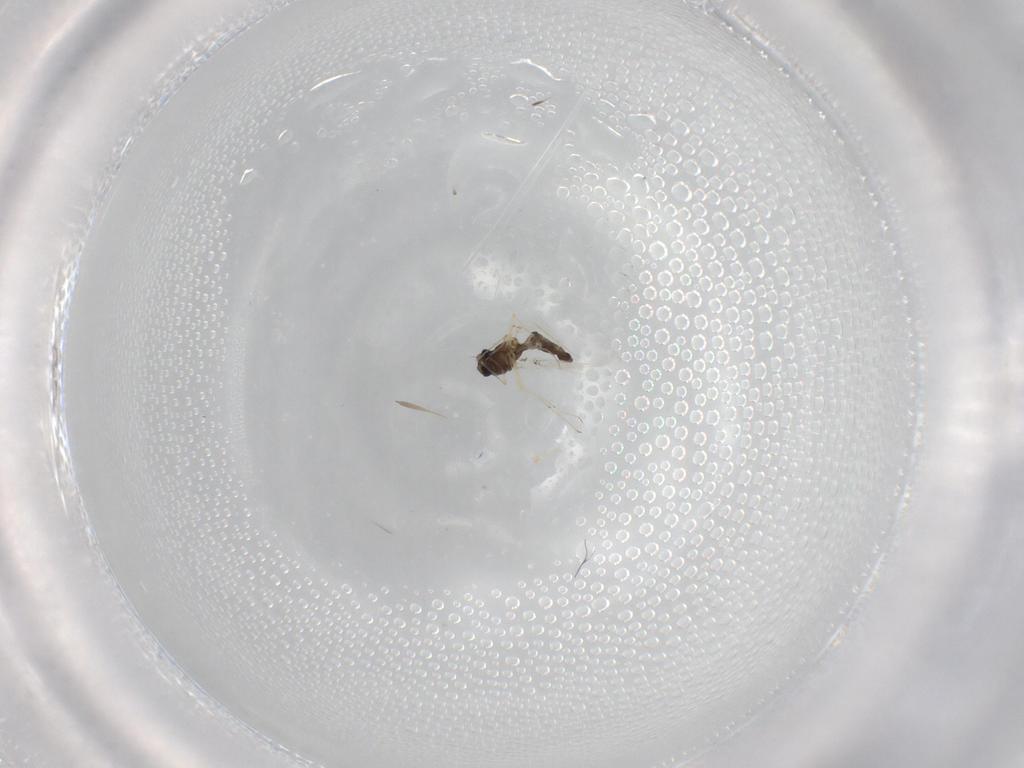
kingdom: Animalia
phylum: Arthropoda
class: Insecta
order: Diptera
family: Chironomidae
